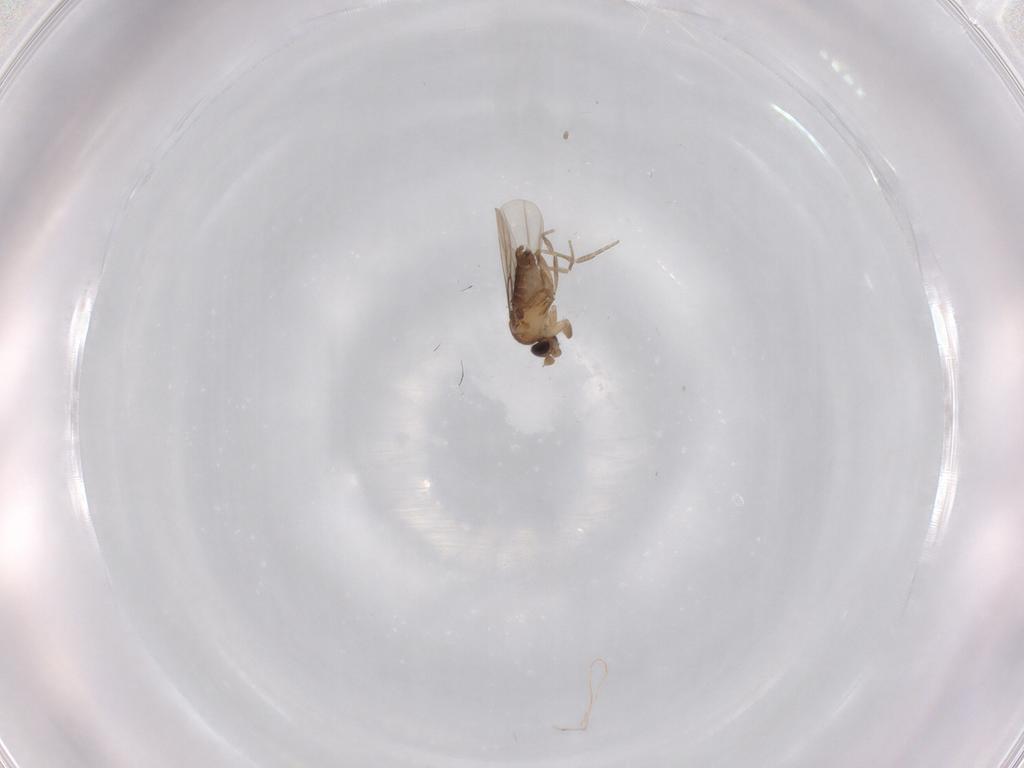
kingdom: Animalia
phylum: Arthropoda
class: Insecta
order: Diptera
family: Phoridae
